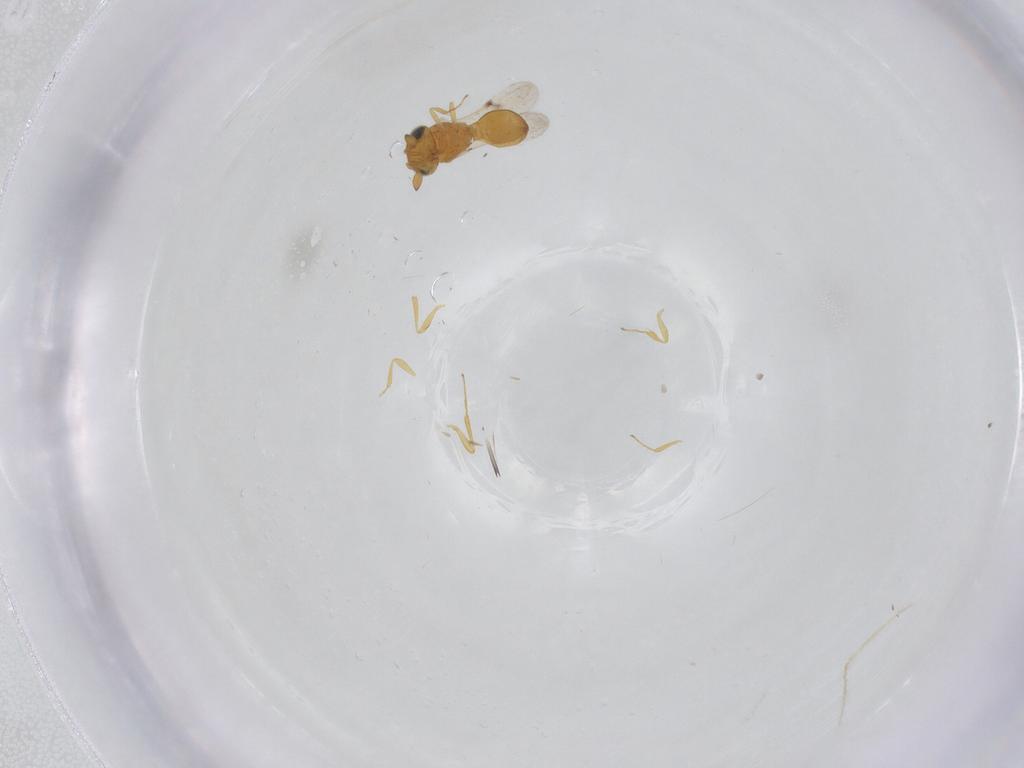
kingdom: Animalia
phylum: Arthropoda
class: Insecta
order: Hymenoptera
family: Scelionidae
